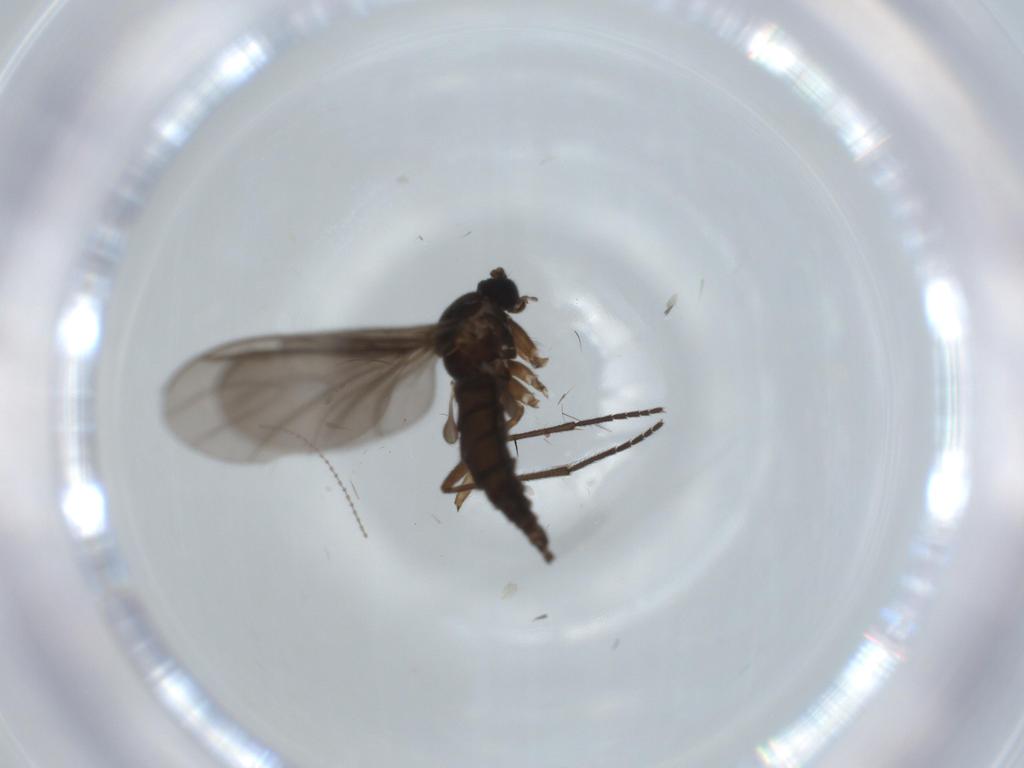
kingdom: Animalia
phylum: Arthropoda
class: Insecta
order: Diptera
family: Sciaridae
